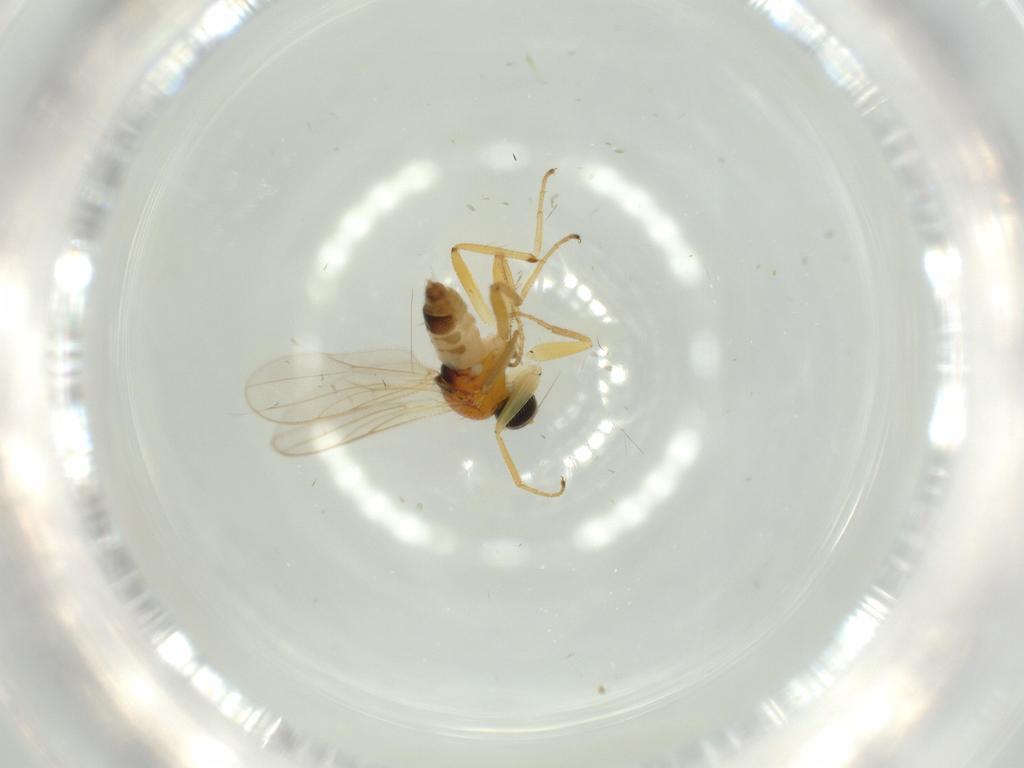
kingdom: Animalia
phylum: Arthropoda
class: Insecta
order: Diptera
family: Hybotidae
